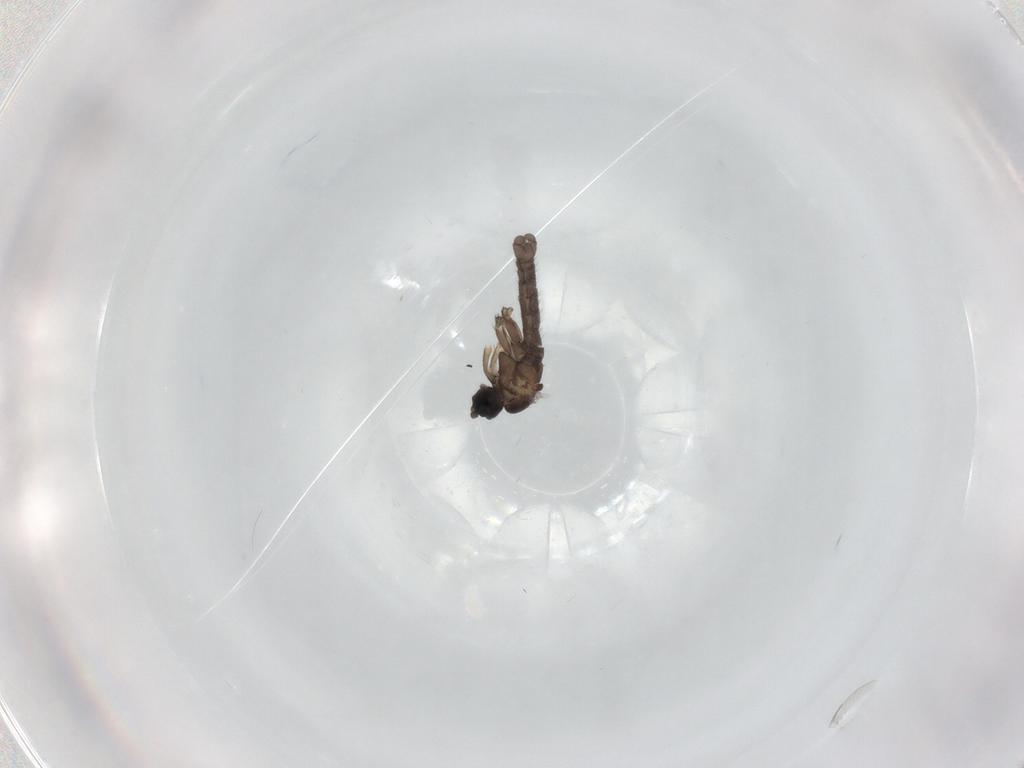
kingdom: Animalia
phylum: Arthropoda
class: Insecta
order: Diptera
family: Sciaridae
